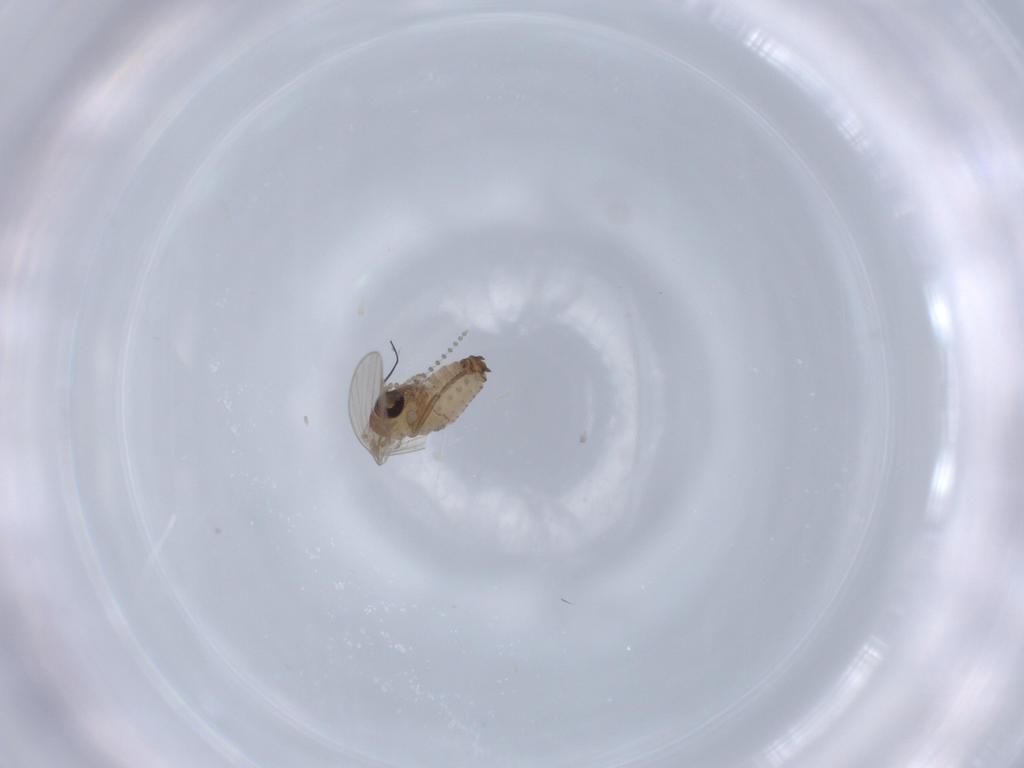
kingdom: Animalia
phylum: Arthropoda
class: Insecta
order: Diptera
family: Psychodidae
